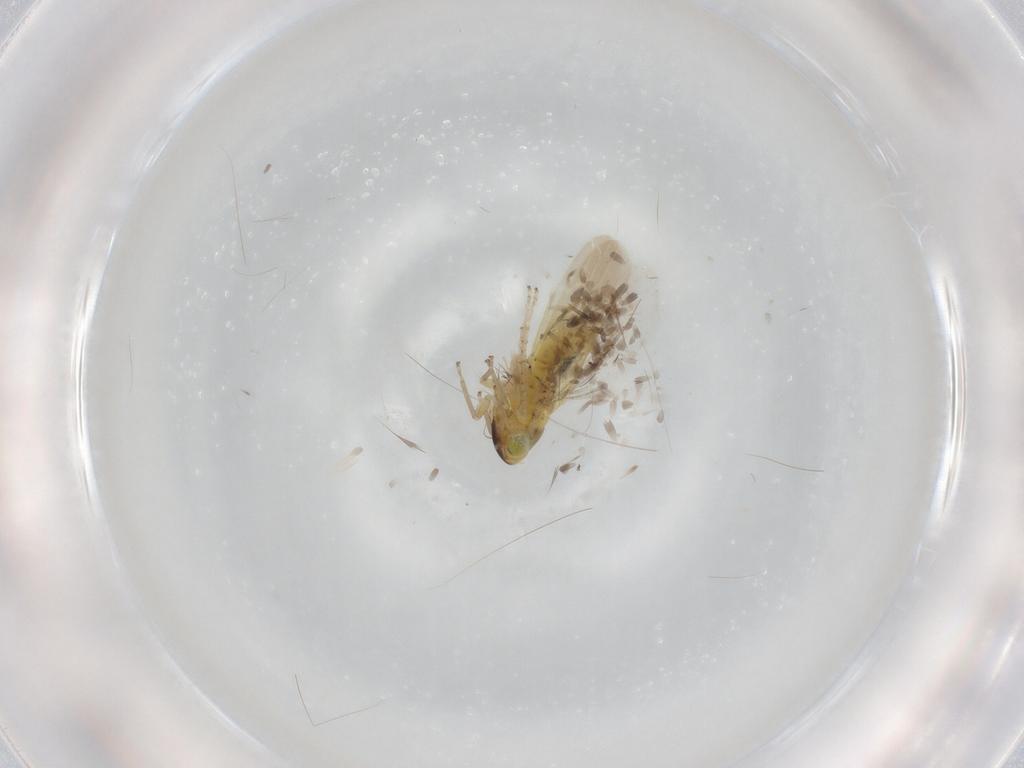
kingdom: Animalia
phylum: Arthropoda
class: Insecta
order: Hemiptera
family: Cicadellidae
